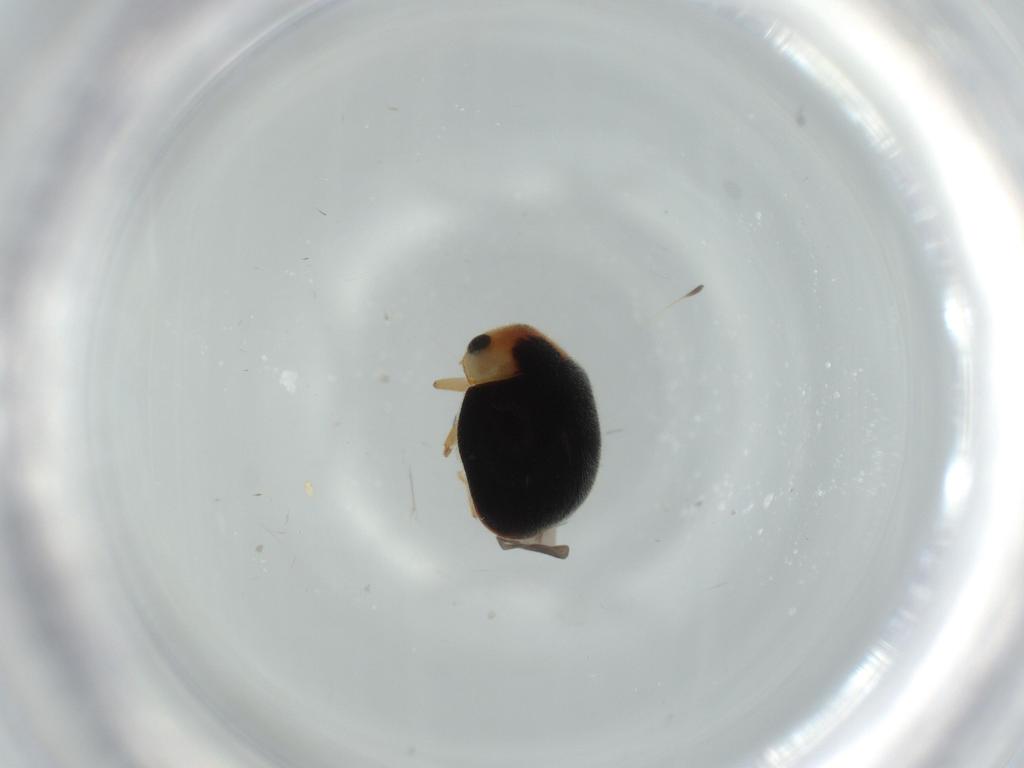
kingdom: Animalia
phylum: Arthropoda
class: Insecta
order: Coleoptera
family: Coccinellidae
